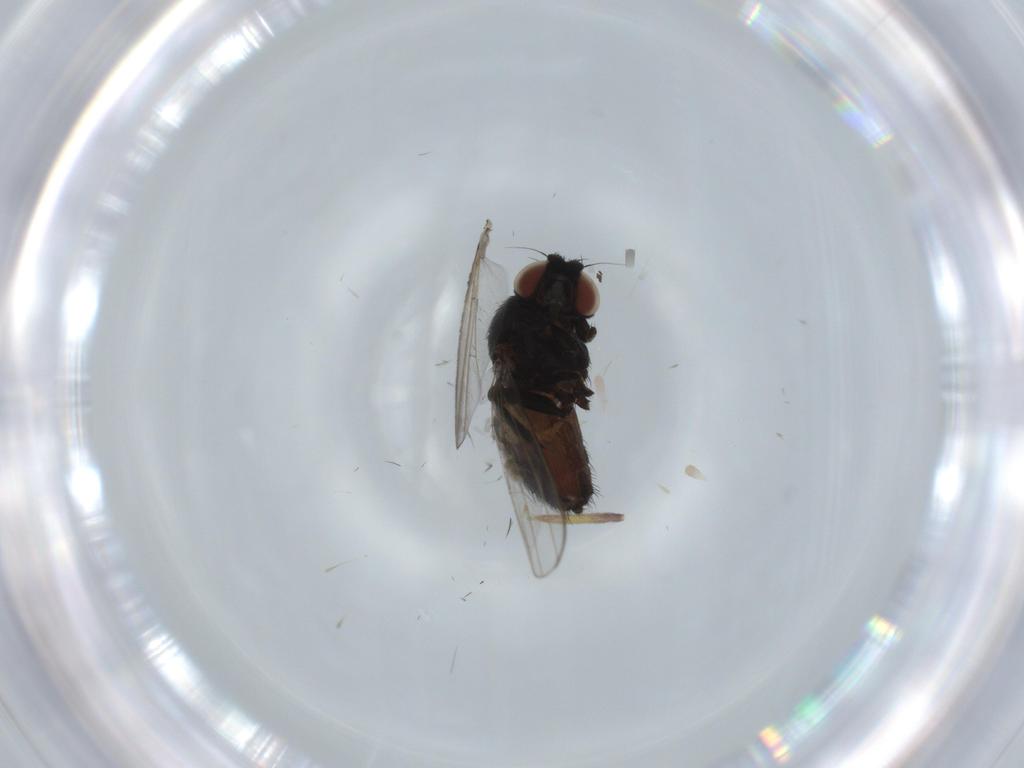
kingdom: Animalia
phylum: Arthropoda
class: Insecta
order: Diptera
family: Milichiidae
